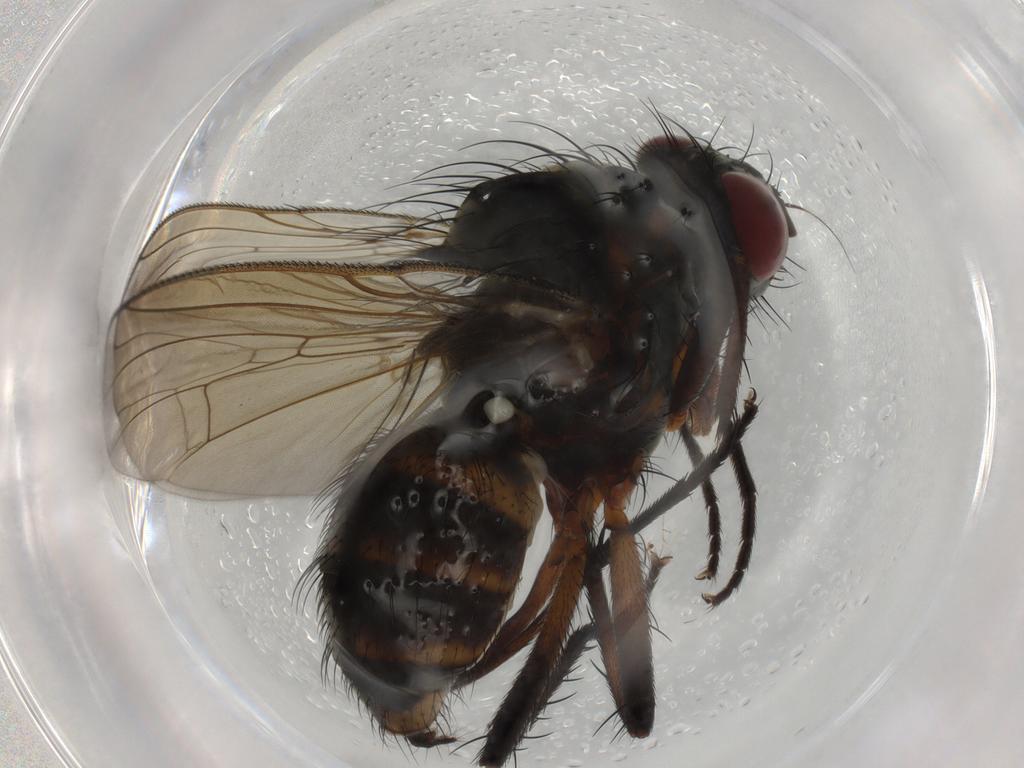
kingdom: Animalia
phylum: Arthropoda
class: Insecta
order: Diptera
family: Anthomyiidae
